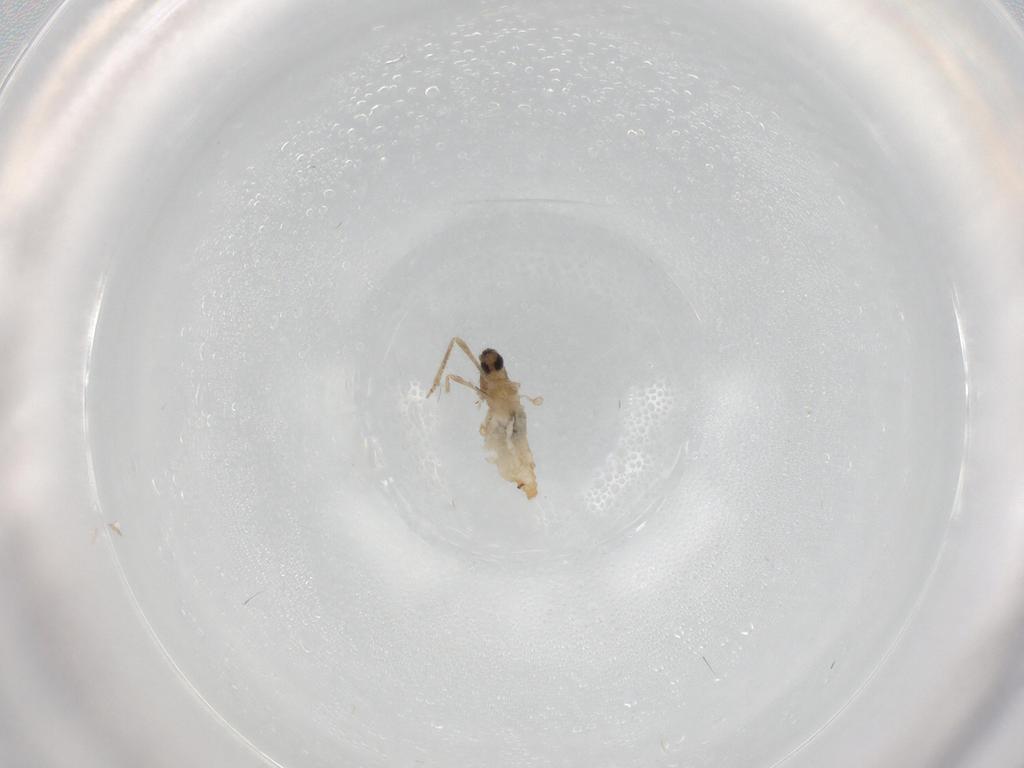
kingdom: Animalia
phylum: Arthropoda
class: Insecta
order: Diptera
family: Cecidomyiidae
